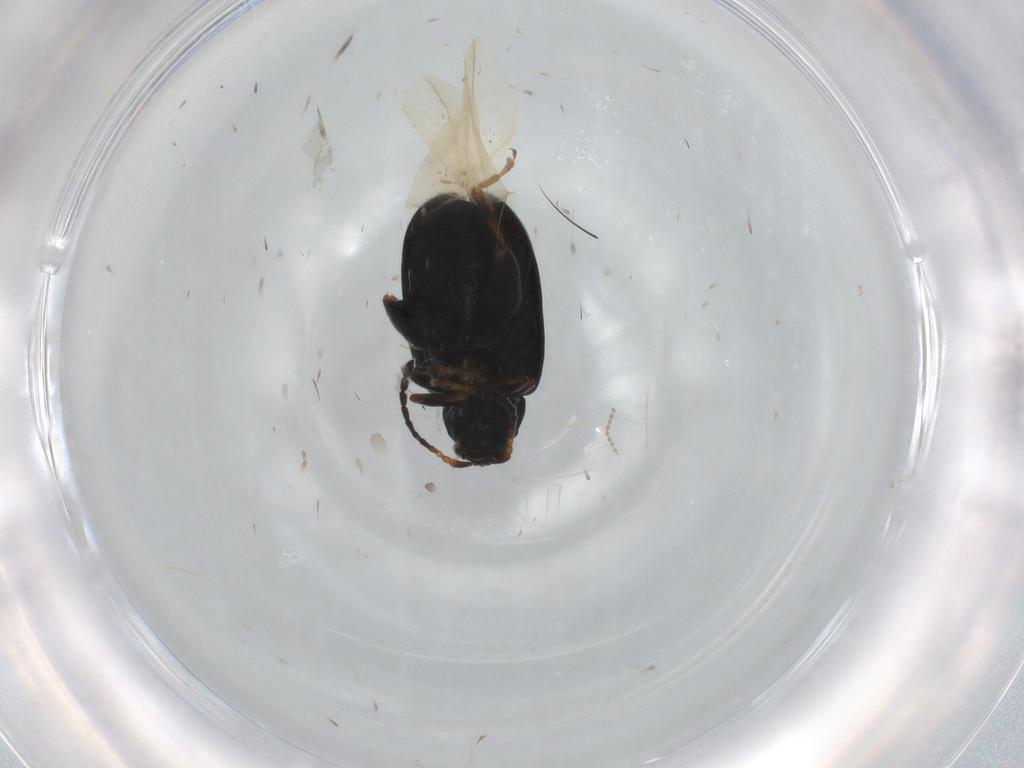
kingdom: Animalia
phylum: Arthropoda
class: Insecta
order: Coleoptera
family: Chrysomelidae
